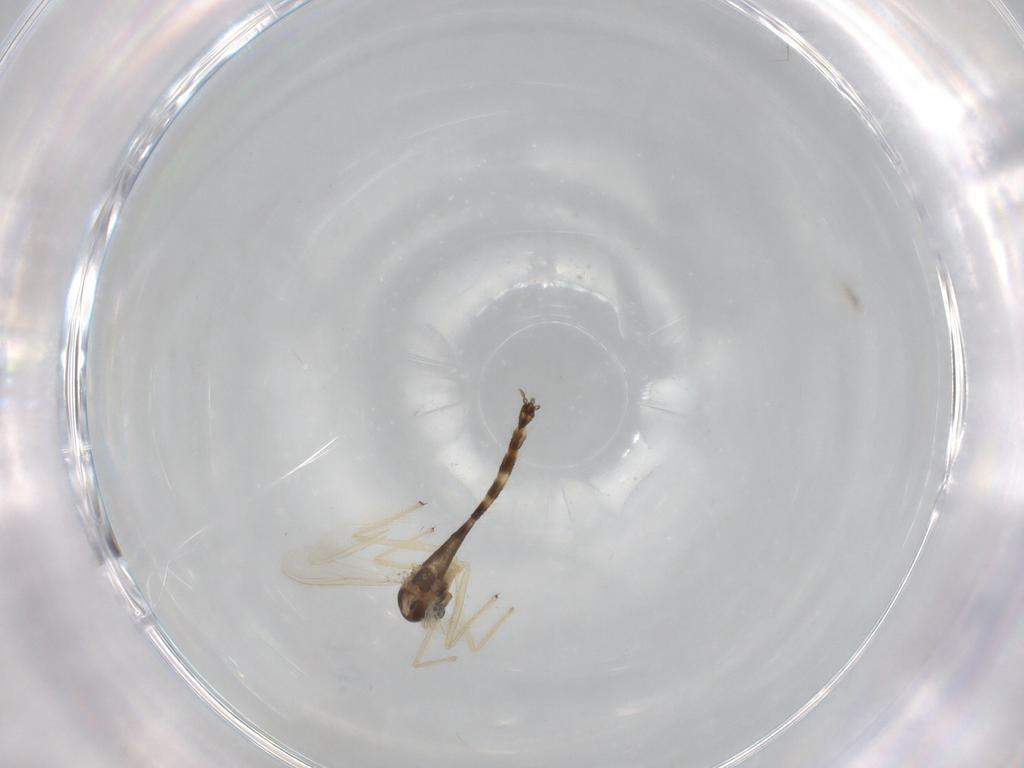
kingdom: Animalia
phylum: Arthropoda
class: Insecta
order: Diptera
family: Chironomidae
